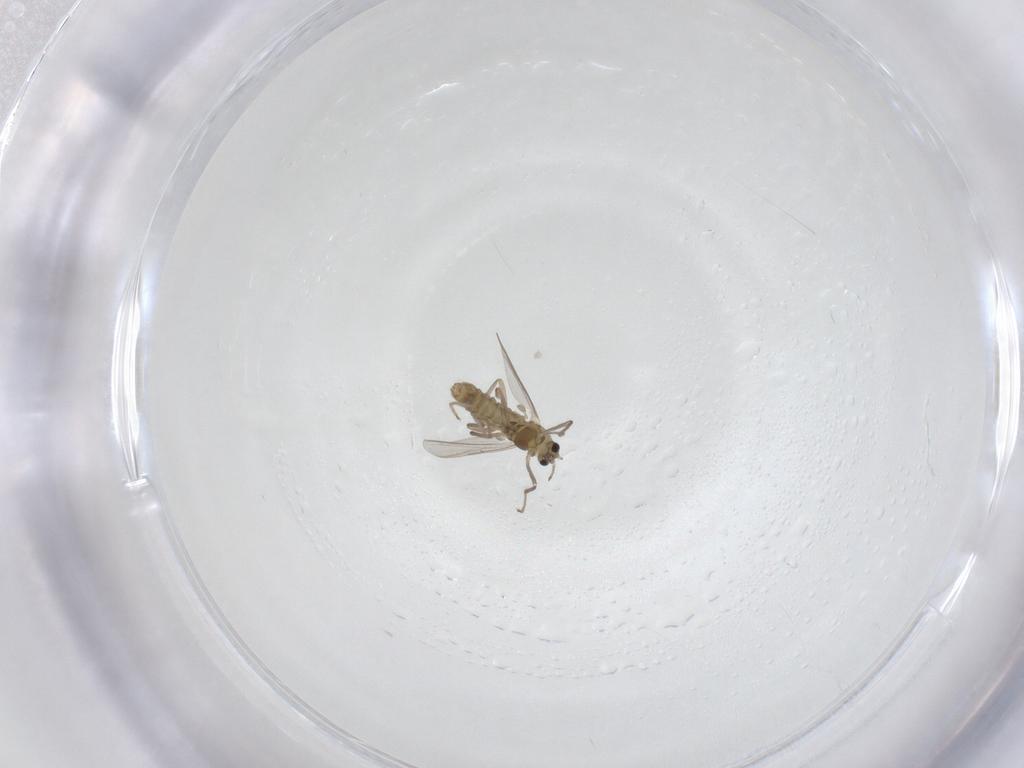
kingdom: Animalia
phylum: Arthropoda
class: Insecta
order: Diptera
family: Chironomidae
